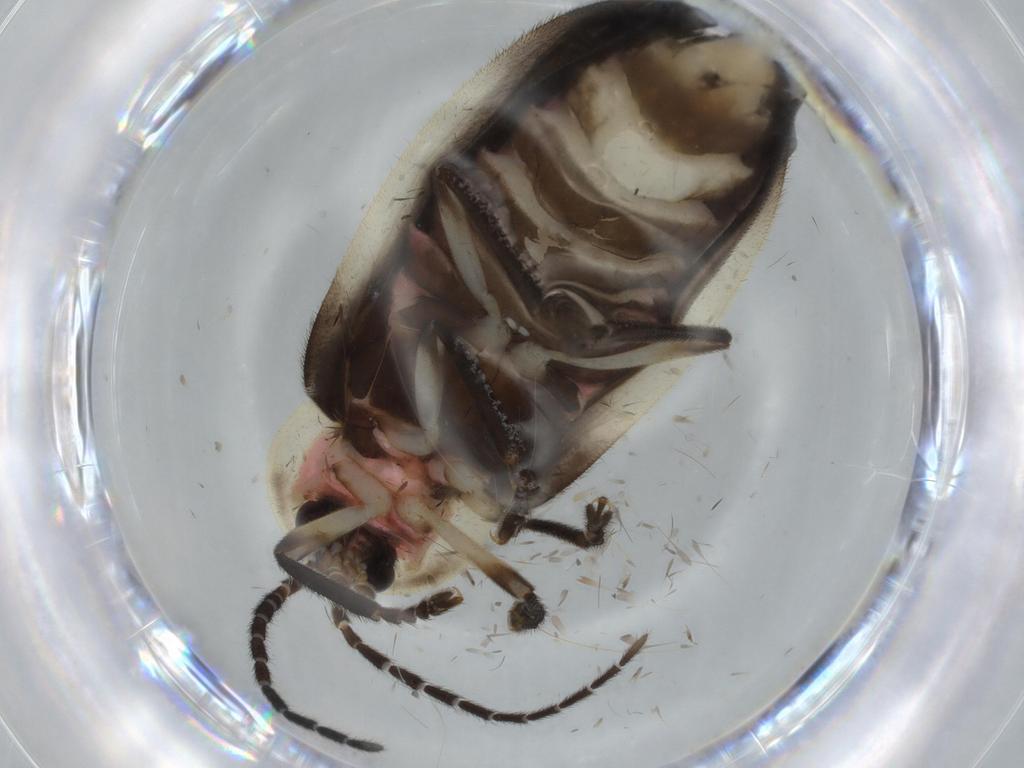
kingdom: Animalia
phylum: Arthropoda
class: Insecta
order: Coleoptera
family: Lampyridae
